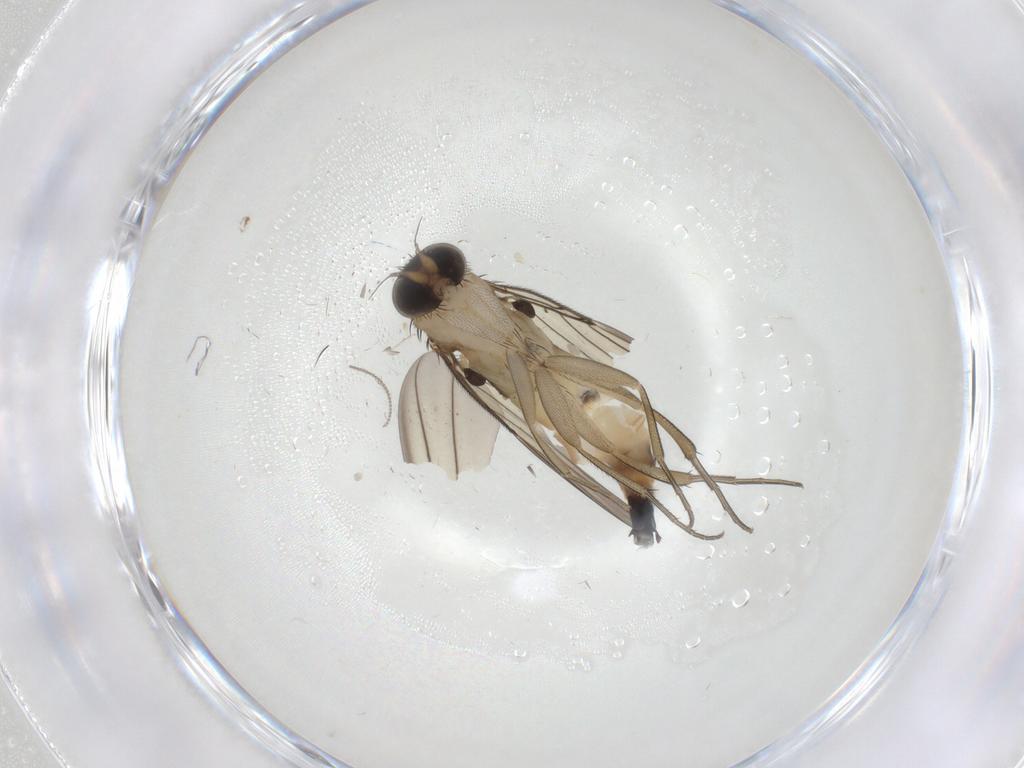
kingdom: Animalia
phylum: Arthropoda
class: Insecta
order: Diptera
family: Phoridae
